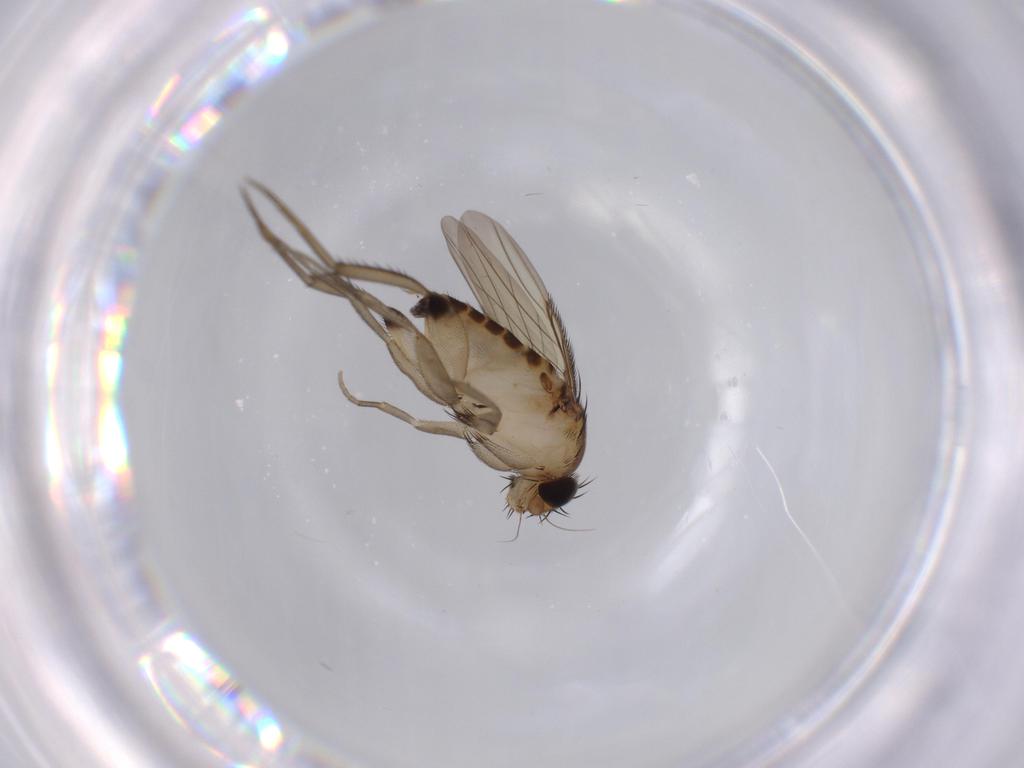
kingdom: Animalia
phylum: Arthropoda
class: Insecta
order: Diptera
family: Phoridae
